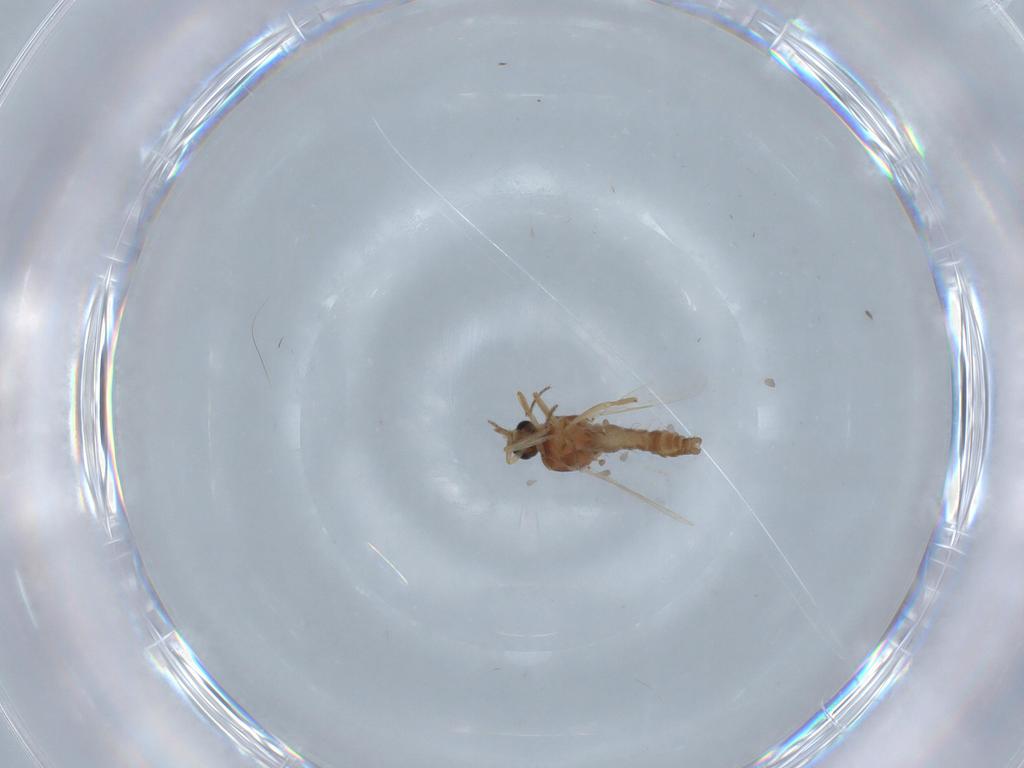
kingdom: Animalia
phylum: Arthropoda
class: Insecta
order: Diptera
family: Ceratopogonidae
